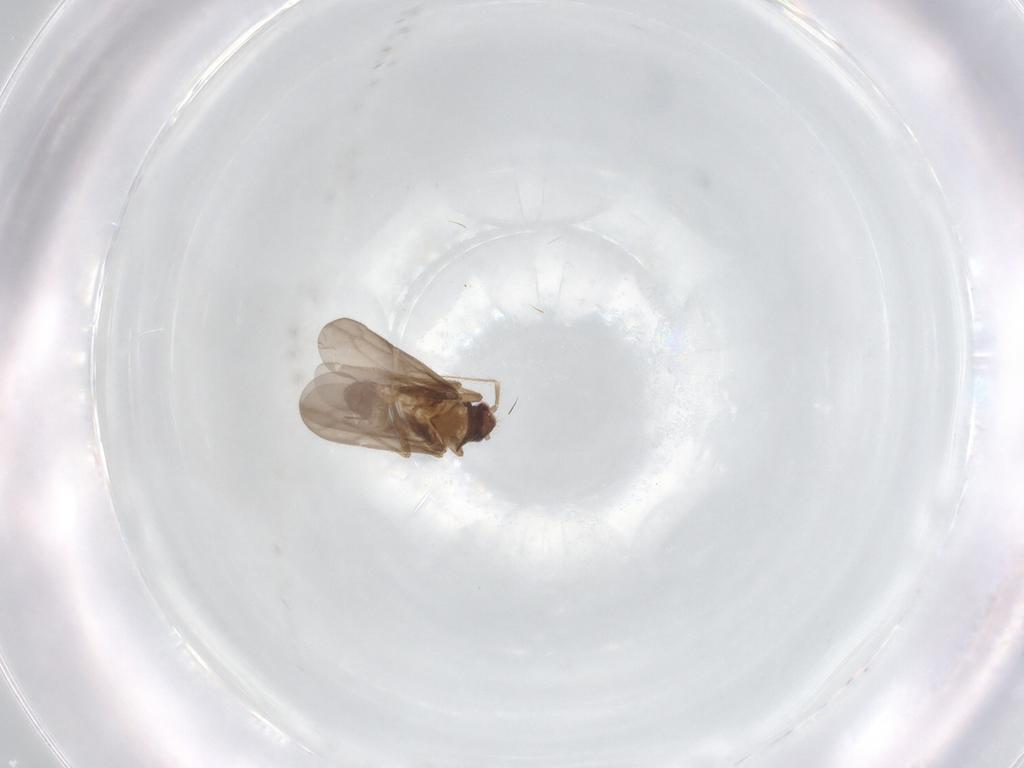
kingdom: Animalia
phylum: Arthropoda
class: Insecta
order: Hemiptera
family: Ceratocombidae
